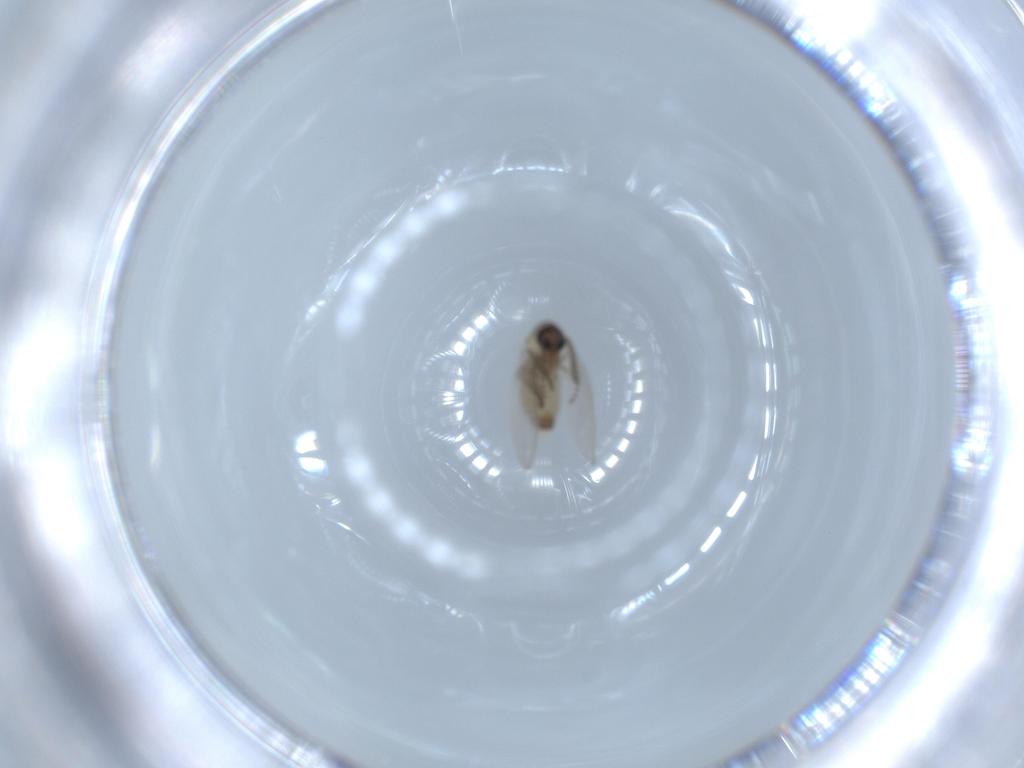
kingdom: Animalia
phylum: Arthropoda
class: Insecta
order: Diptera
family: Psychodidae
